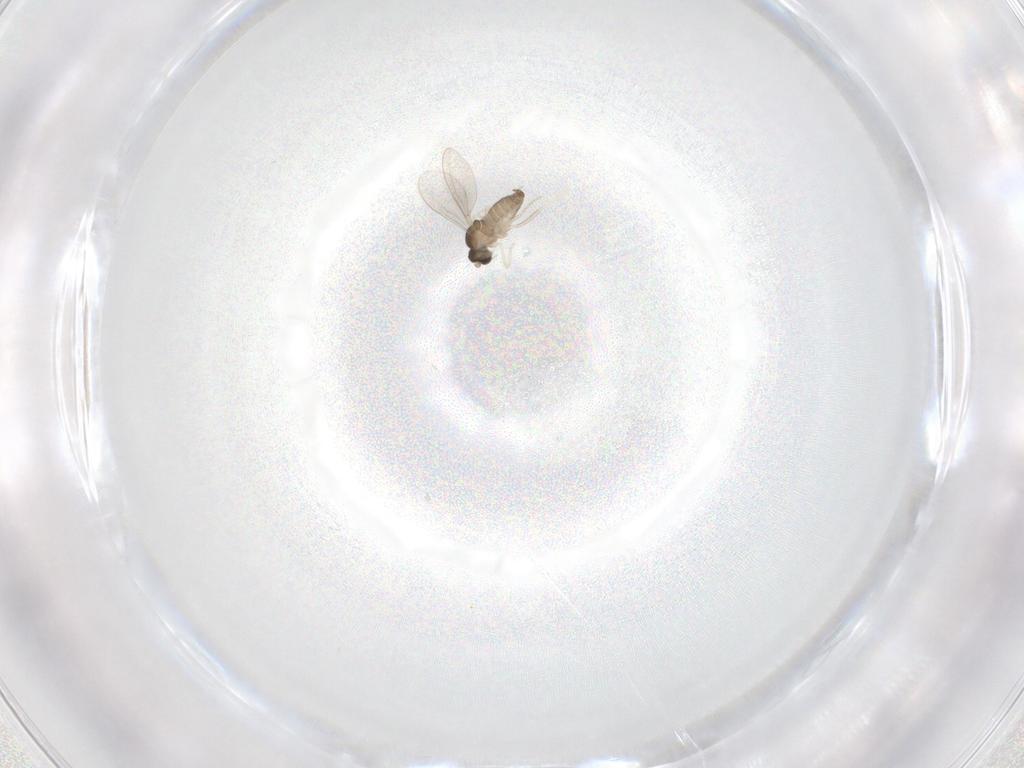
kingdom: Animalia
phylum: Arthropoda
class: Insecta
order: Diptera
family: Cecidomyiidae
